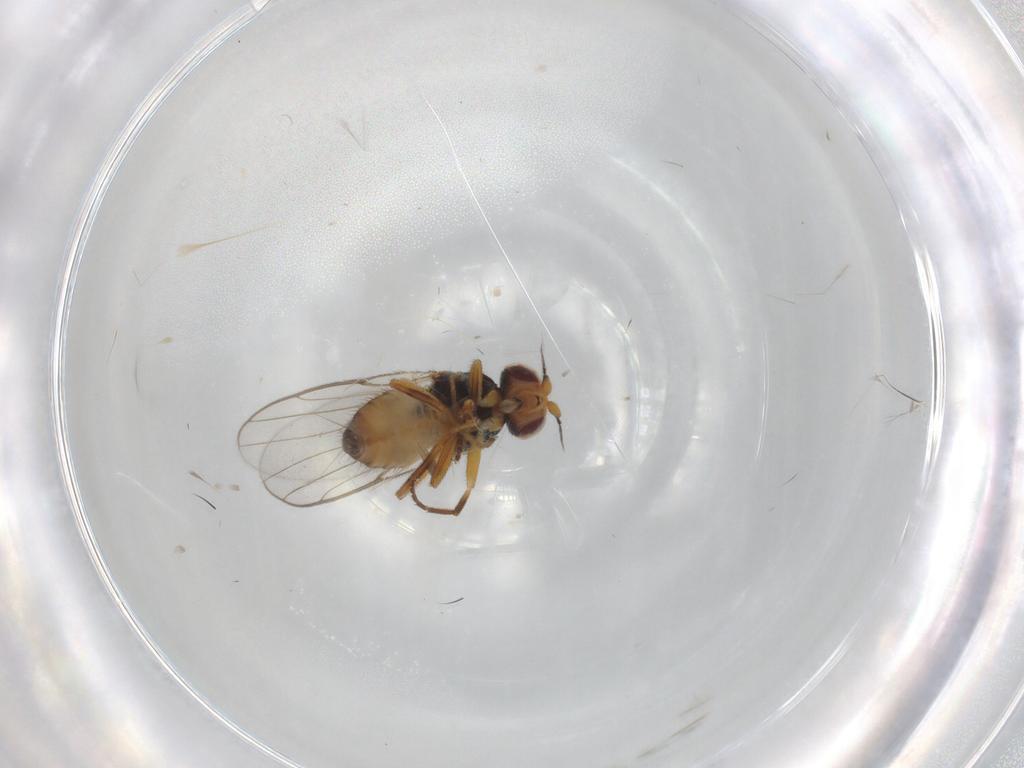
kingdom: Animalia
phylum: Arthropoda
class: Insecta
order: Diptera
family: Chloropidae
